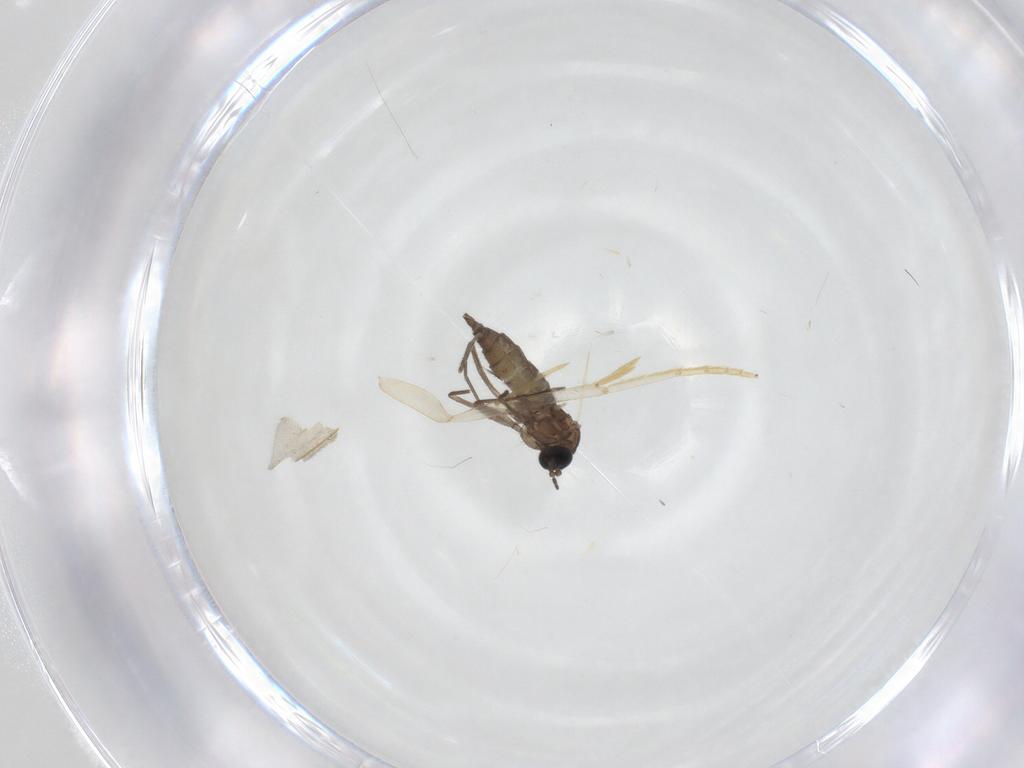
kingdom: Animalia
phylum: Arthropoda
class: Insecta
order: Diptera
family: Sciaridae
